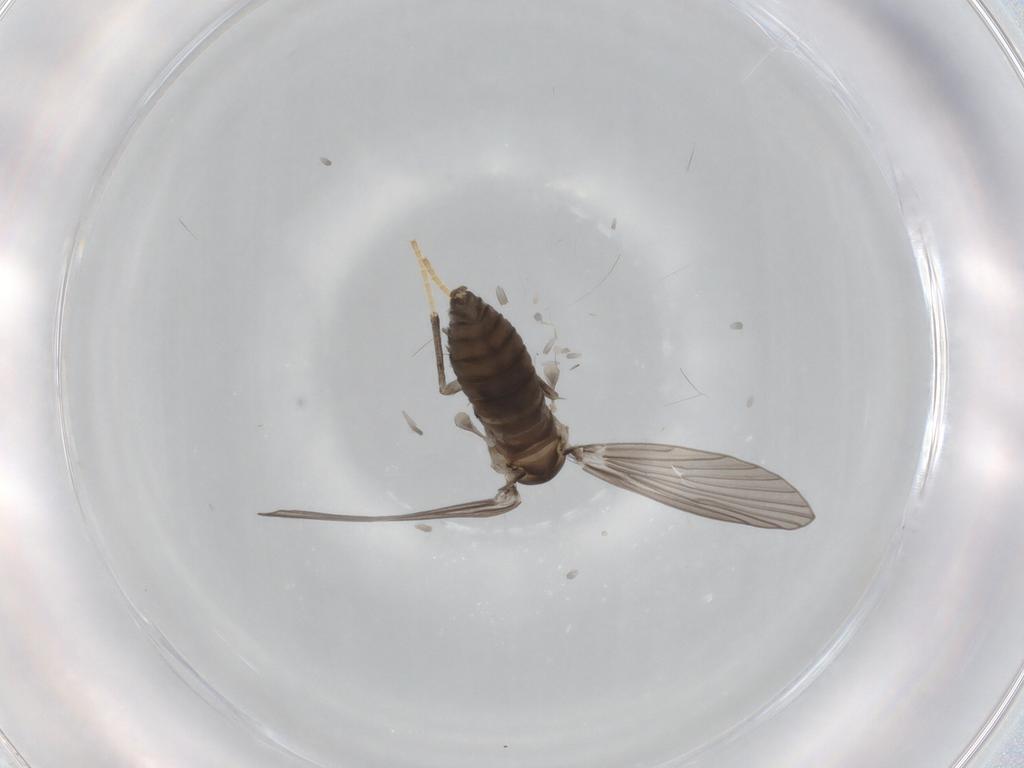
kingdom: Animalia
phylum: Arthropoda
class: Insecta
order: Diptera
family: Psychodidae
